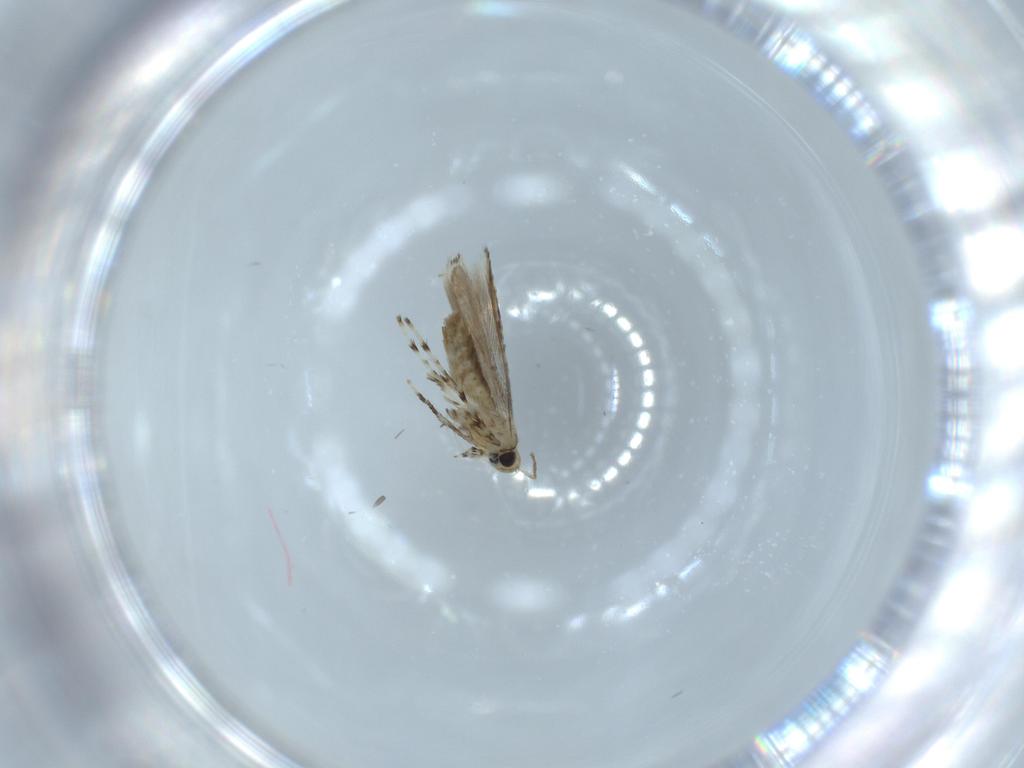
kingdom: Animalia
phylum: Arthropoda
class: Insecta
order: Lepidoptera
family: Gracillariidae
